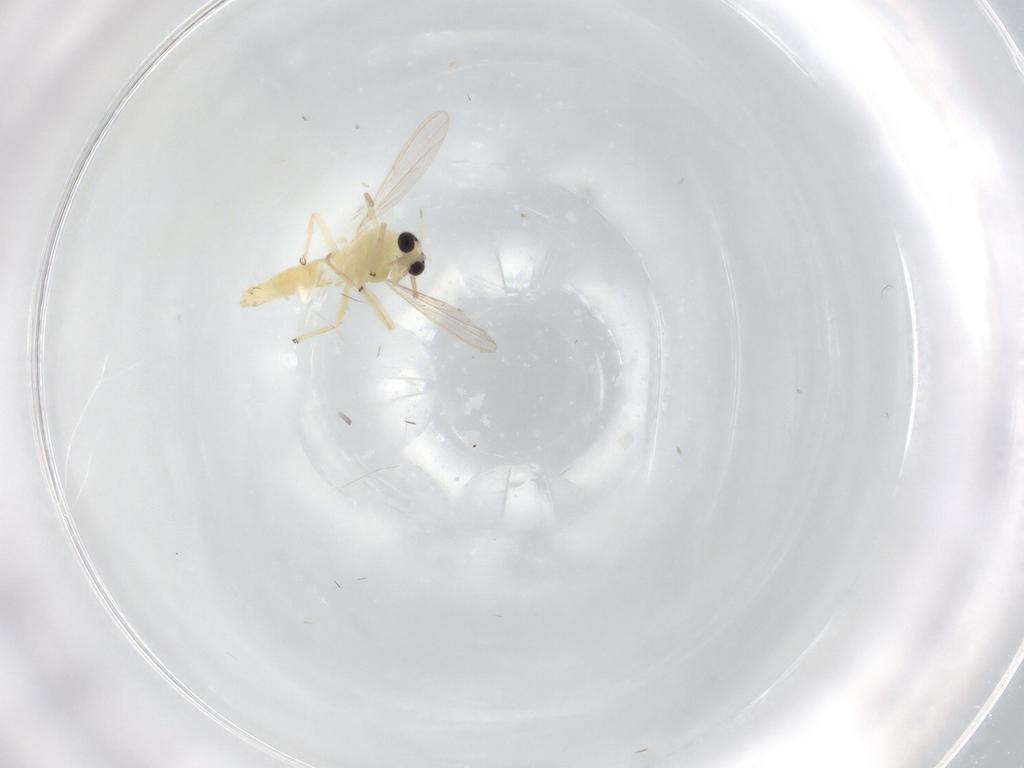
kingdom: Animalia
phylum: Arthropoda
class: Insecta
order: Diptera
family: Chironomidae
